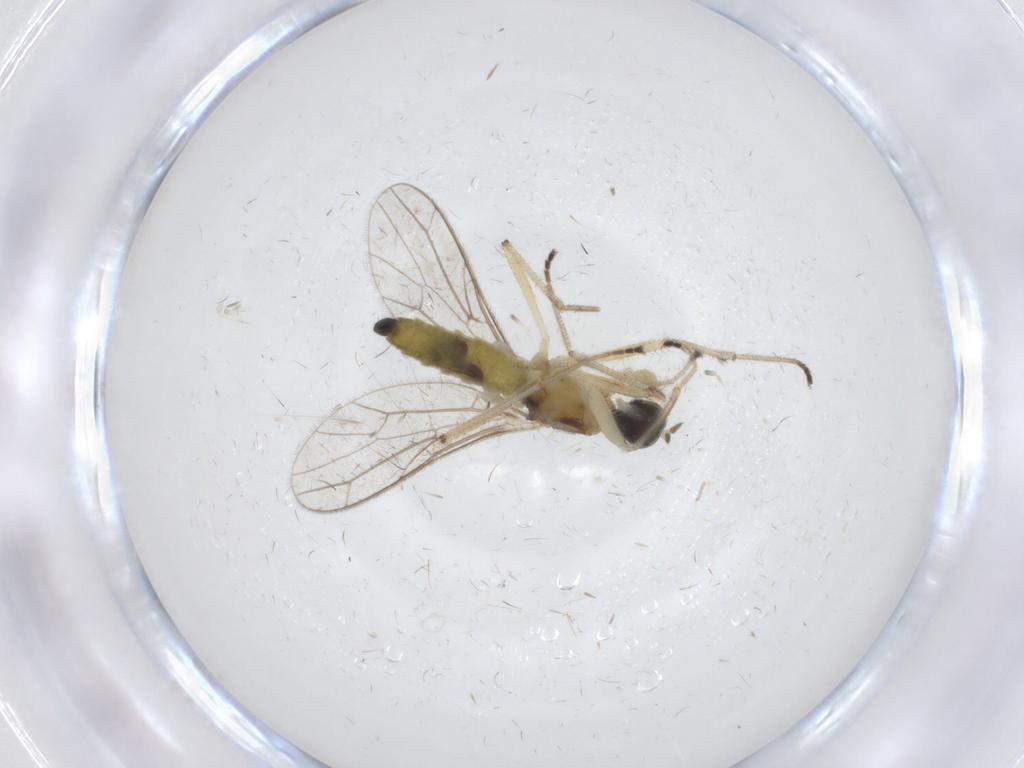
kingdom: Animalia
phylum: Arthropoda
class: Insecta
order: Diptera
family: Empididae
